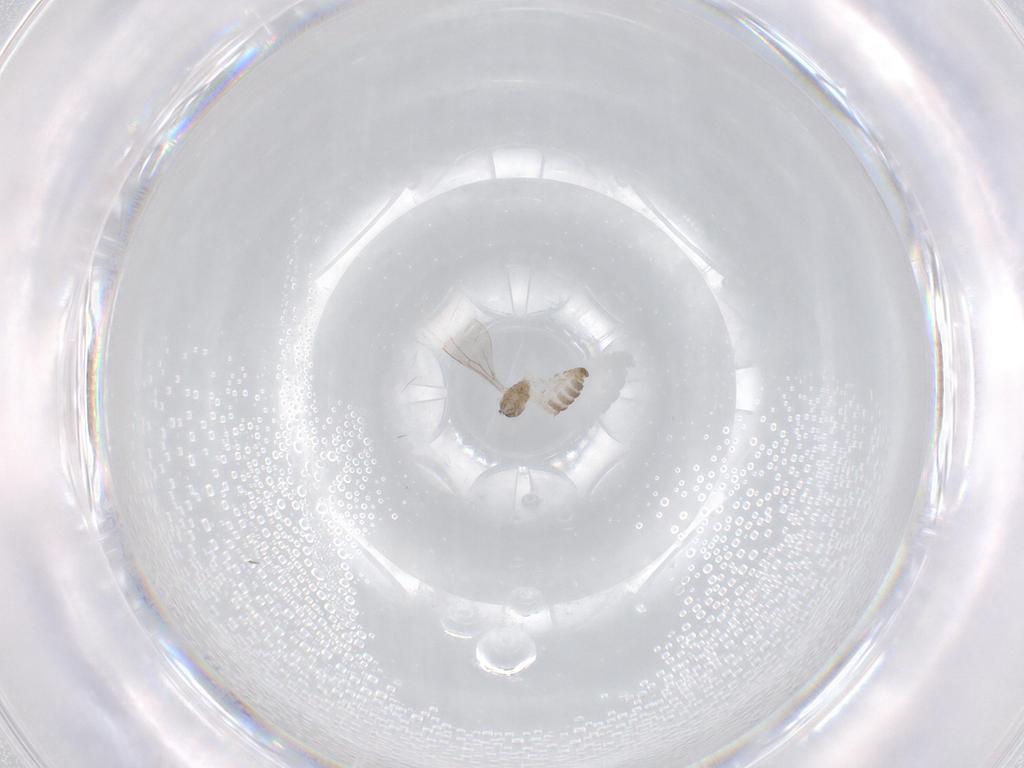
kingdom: Animalia
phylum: Arthropoda
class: Insecta
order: Diptera
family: Cecidomyiidae
